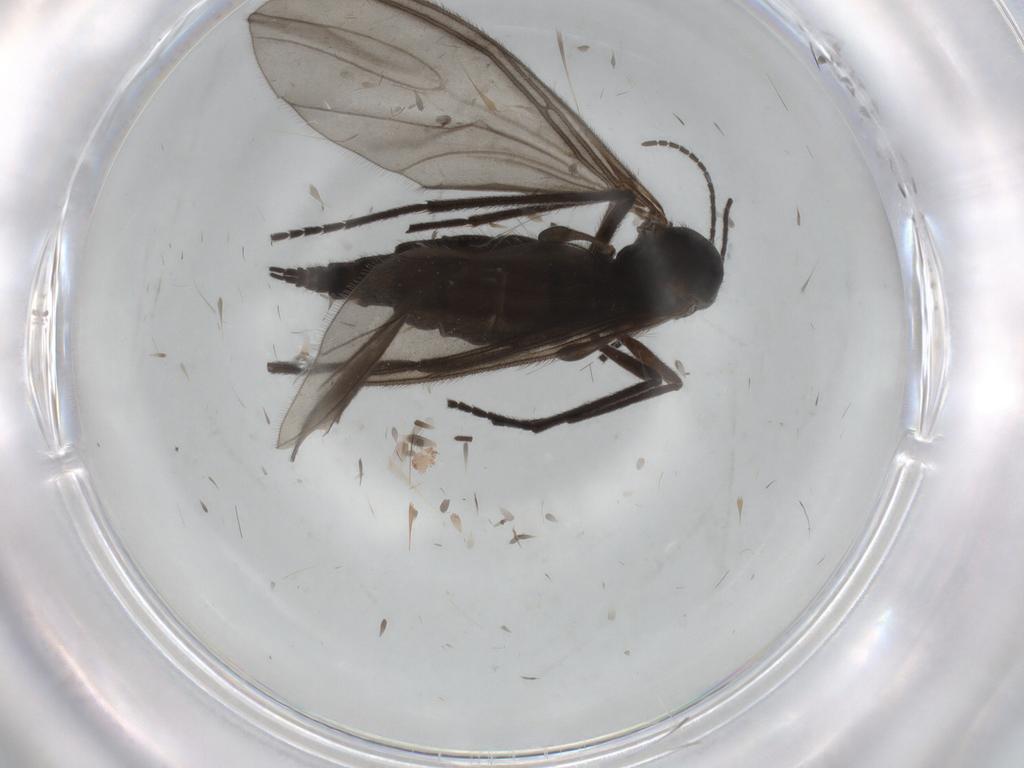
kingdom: Animalia
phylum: Arthropoda
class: Insecta
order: Diptera
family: Sciaridae
